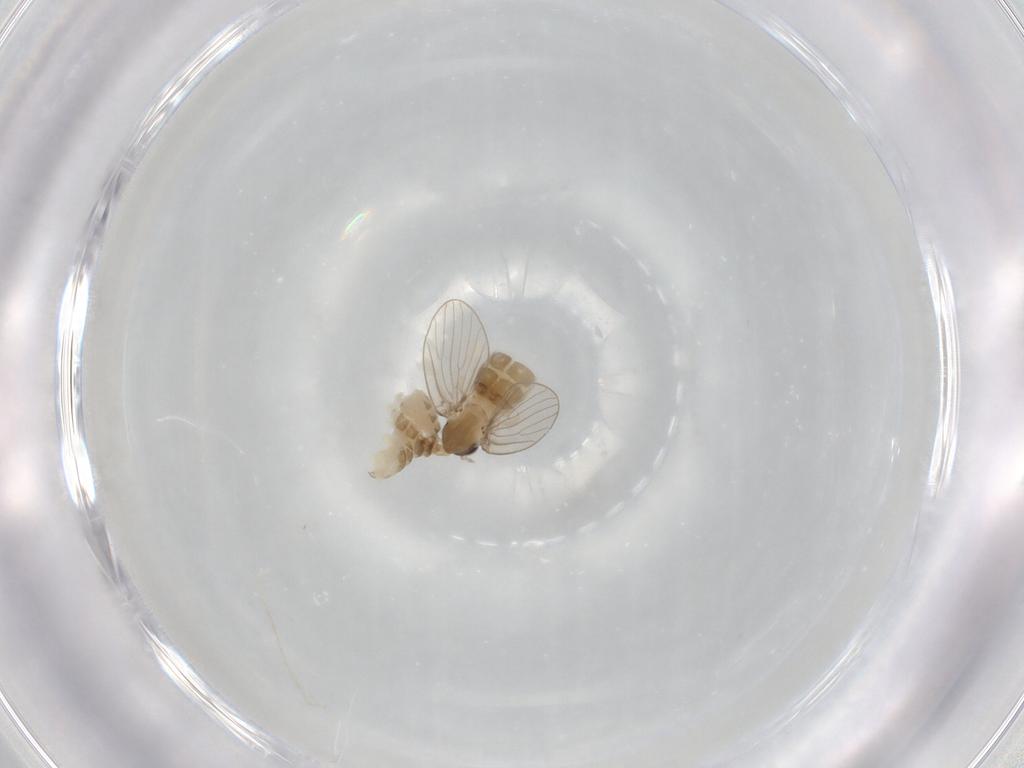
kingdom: Animalia
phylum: Arthropoda
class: Insecta
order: Diptera
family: Psychodidae
